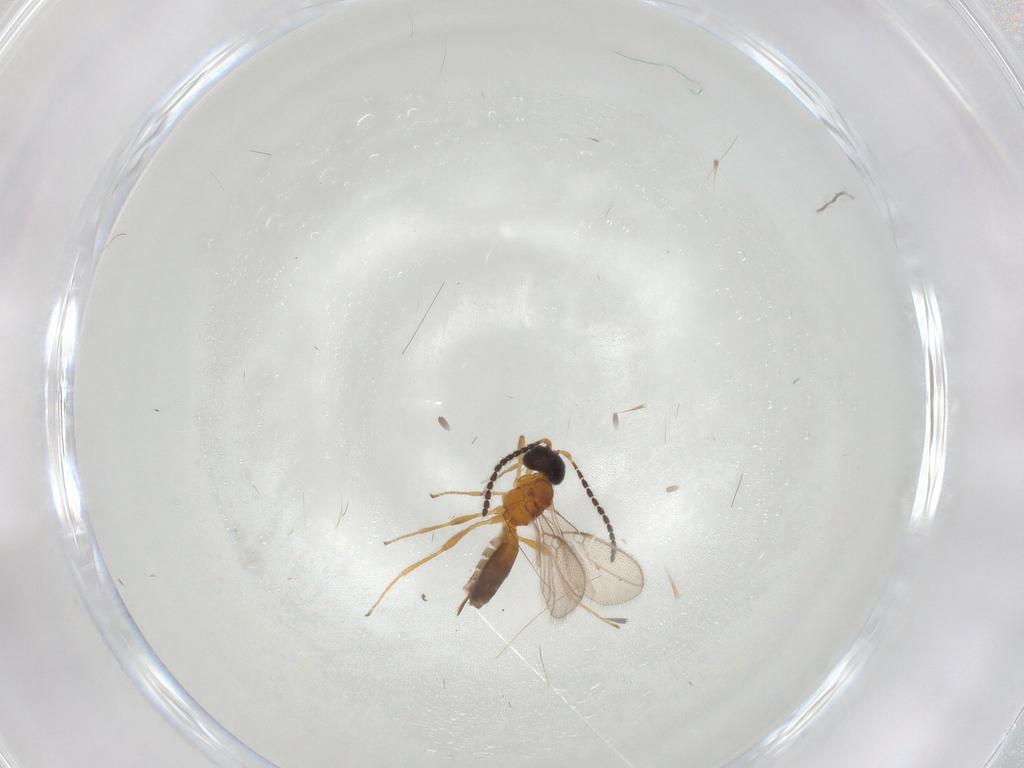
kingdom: Animalia
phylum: Arthropoda
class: Insecta
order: Hymenoptera
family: Braconidae
